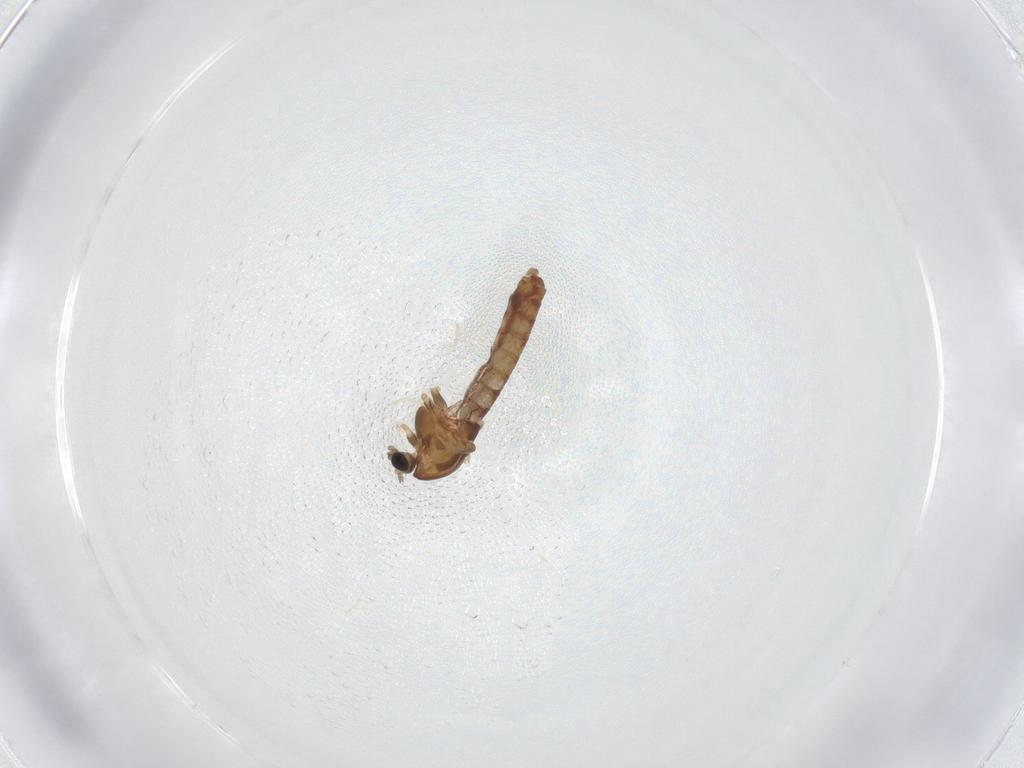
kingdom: Animalia
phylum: Arthropoda
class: Insecta
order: Diptera
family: Chironomidae
